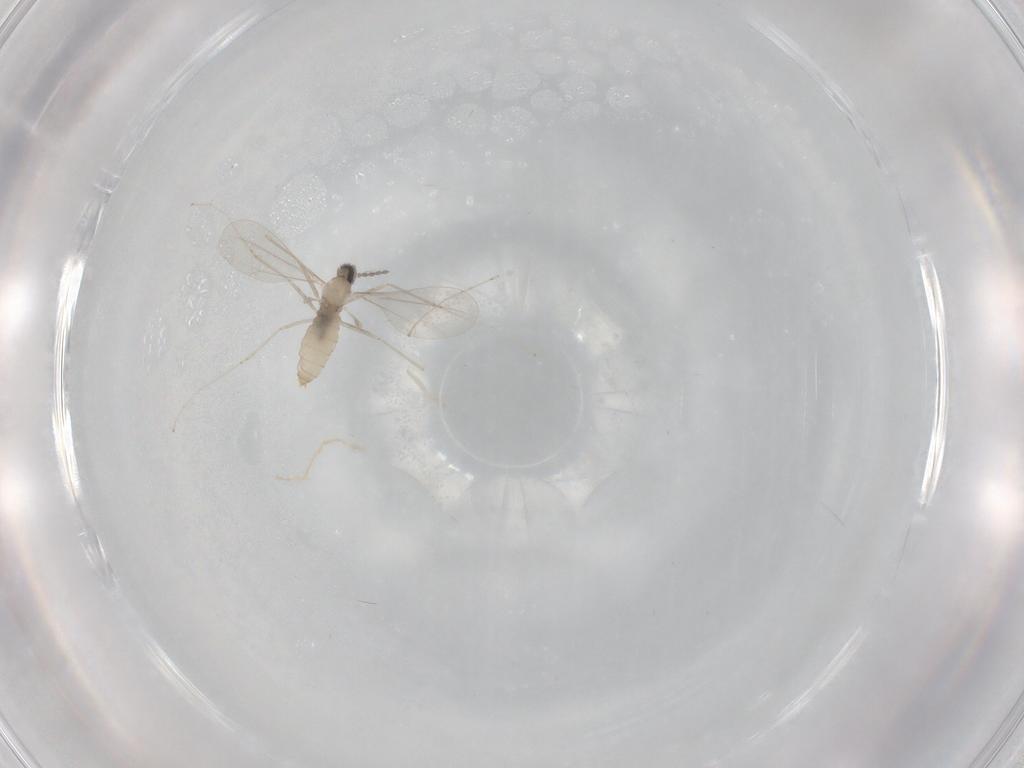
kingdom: Animalia
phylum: Arthropoda
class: Insecta
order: Diptera
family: Cecidomyiidae
